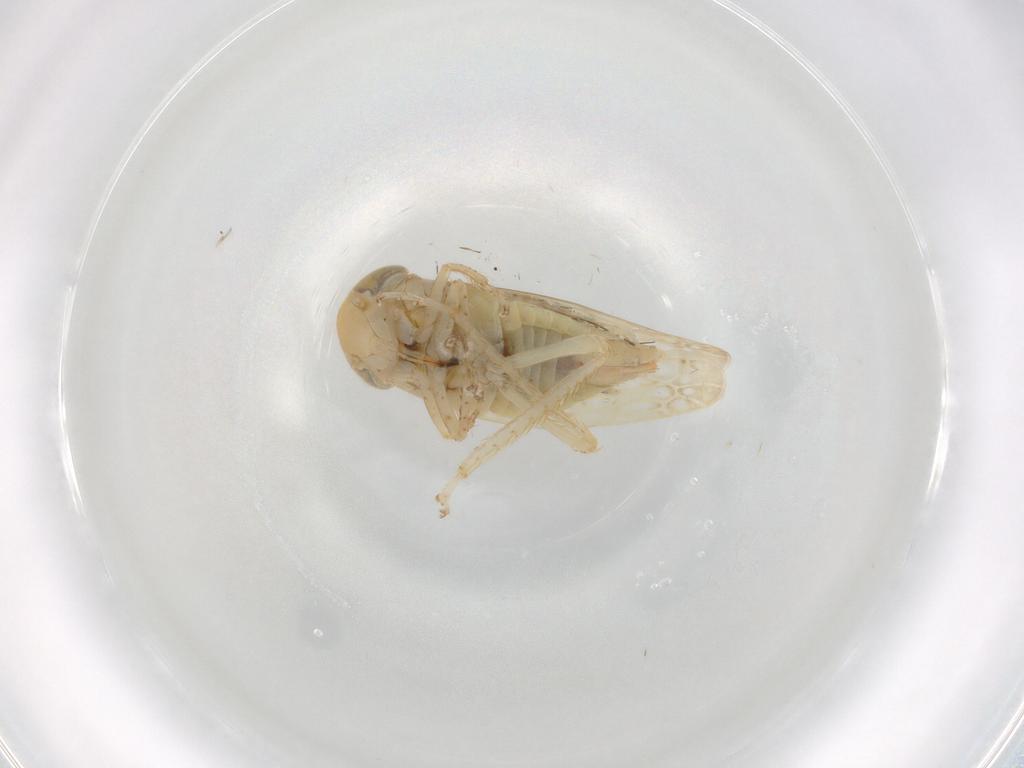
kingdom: Animalia
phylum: Arthropoda
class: Insecta
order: Hemiptera
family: Cicadellidae
